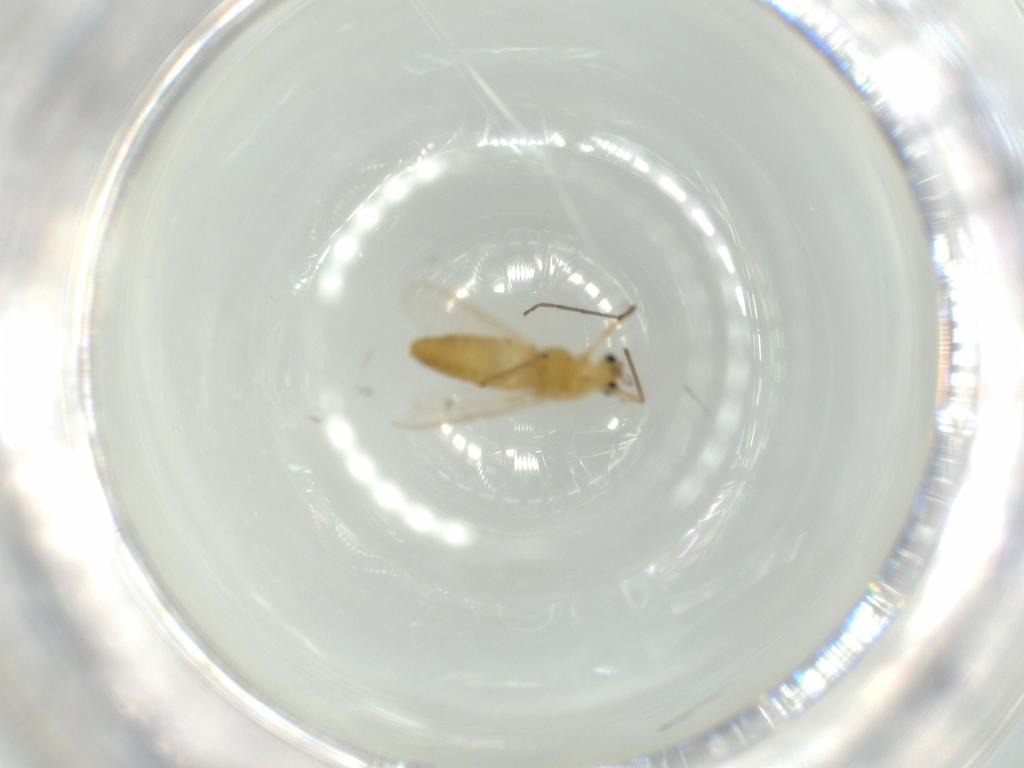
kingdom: Animalia
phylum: Arthropoda
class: Insecta
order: Diptera
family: Chironomidae
